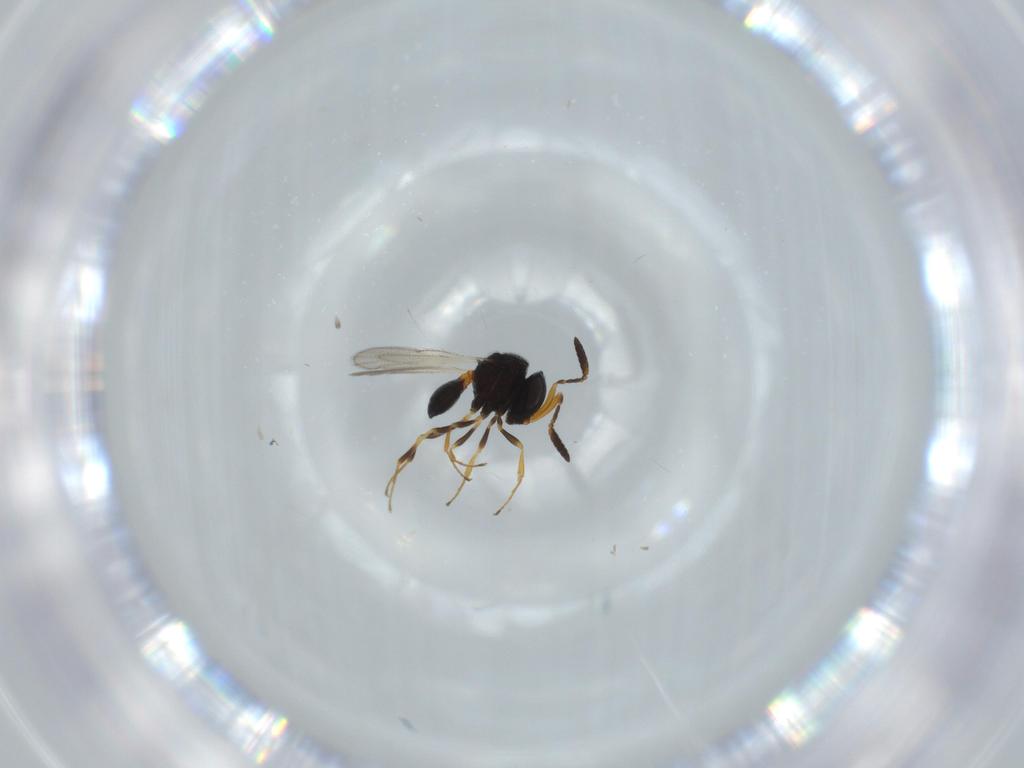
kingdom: Animalia
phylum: Arthropoda
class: Insecta
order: Hymenoptera
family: Scelionidae
